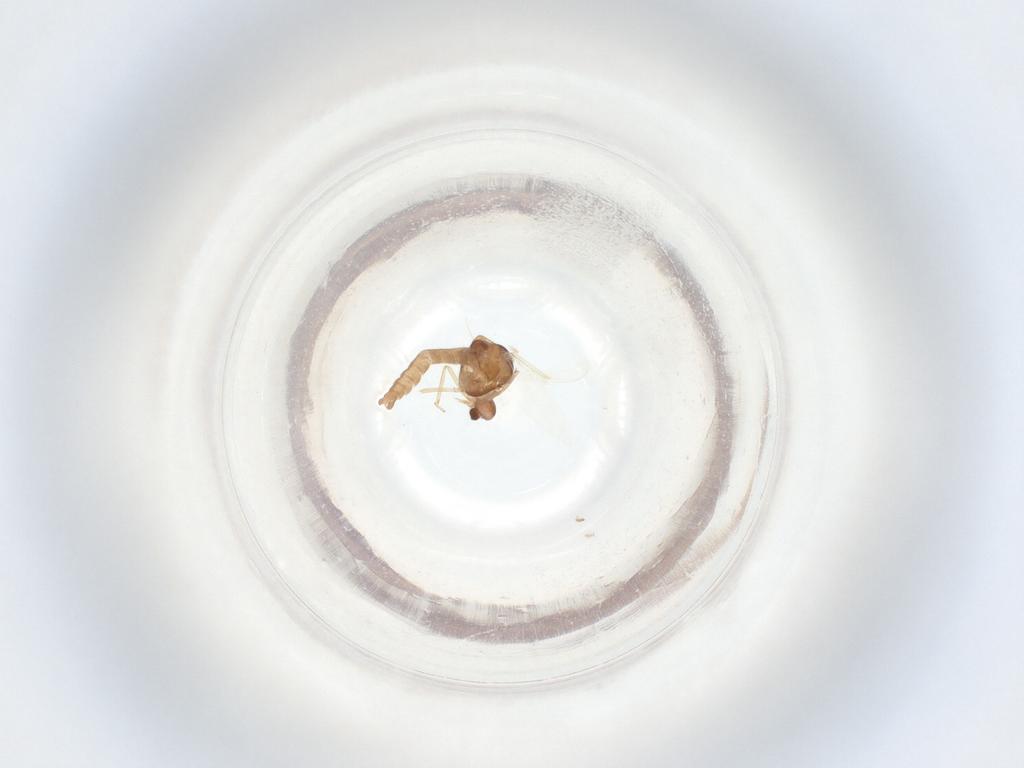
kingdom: Animalia
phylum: Arthropoda
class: Insecta
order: Diptera
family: Ceratopogonidae
